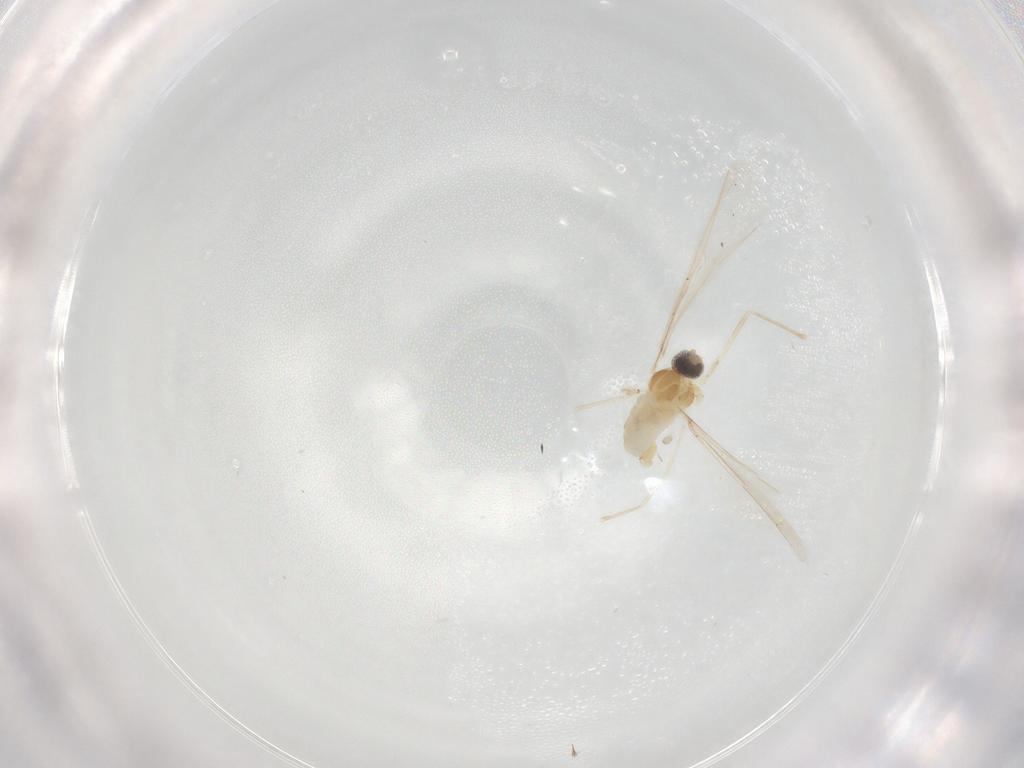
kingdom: Animalia
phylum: Arthropoda
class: Insecta
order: Diptera
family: Cecidomyiidae
